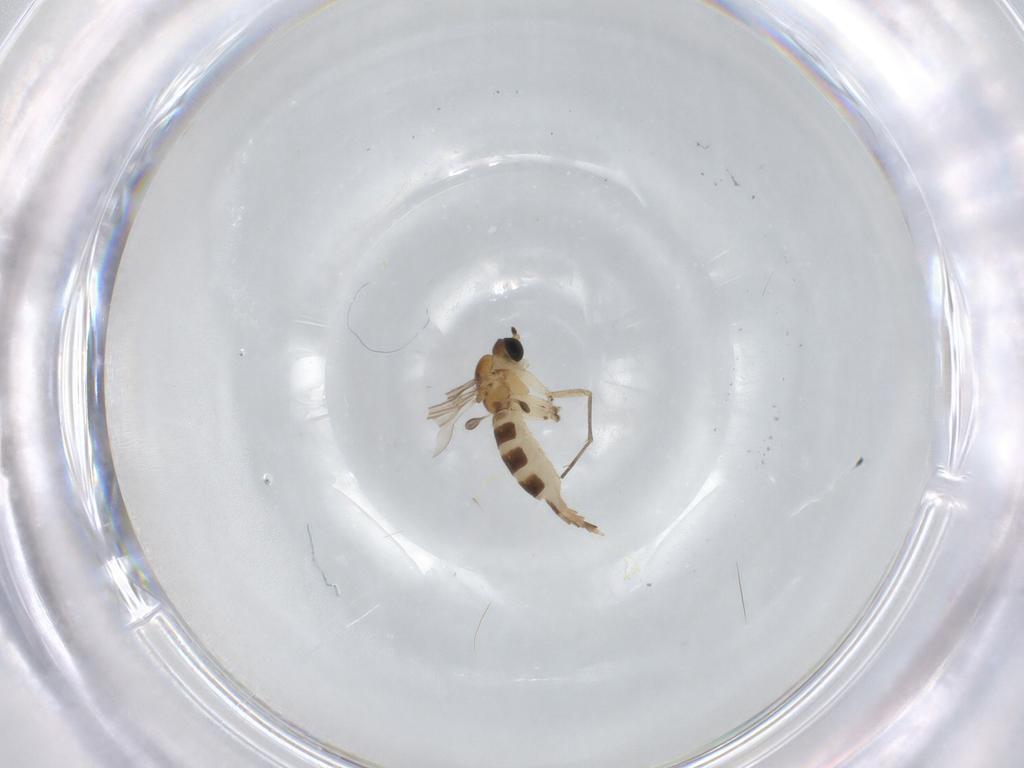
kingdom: Animalia
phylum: Arthropoda
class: Insecta
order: Diptera
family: Sciaridae
